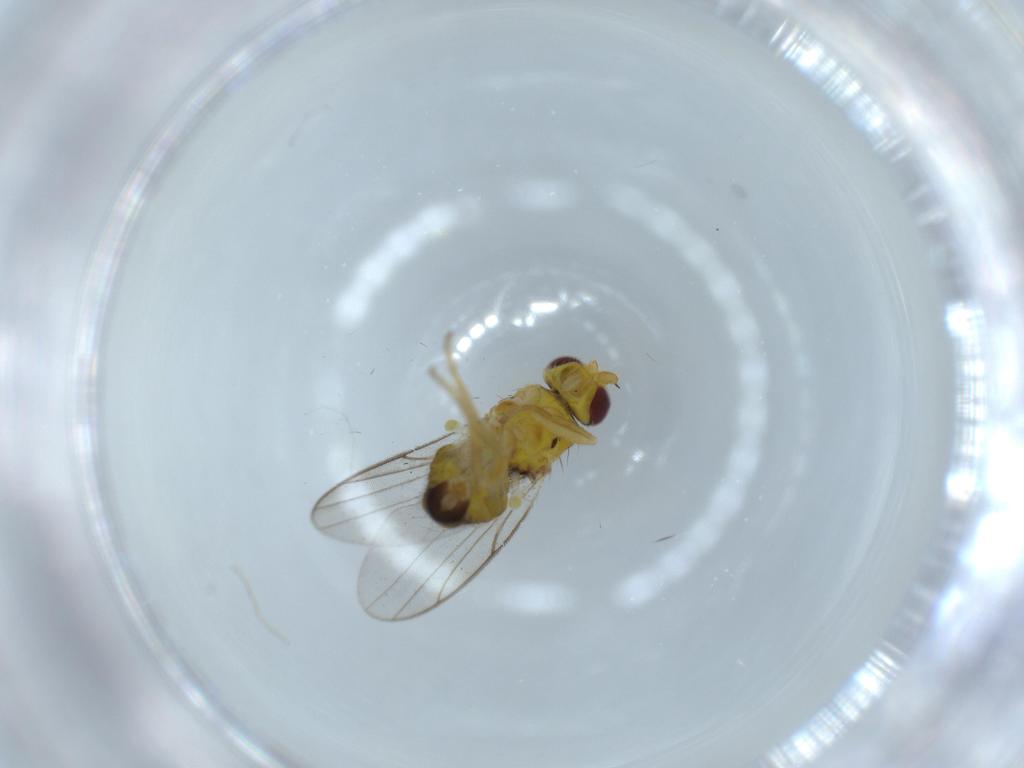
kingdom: Animalia
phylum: Arthropoda
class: Insecta
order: Diptera
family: Chloropidae
